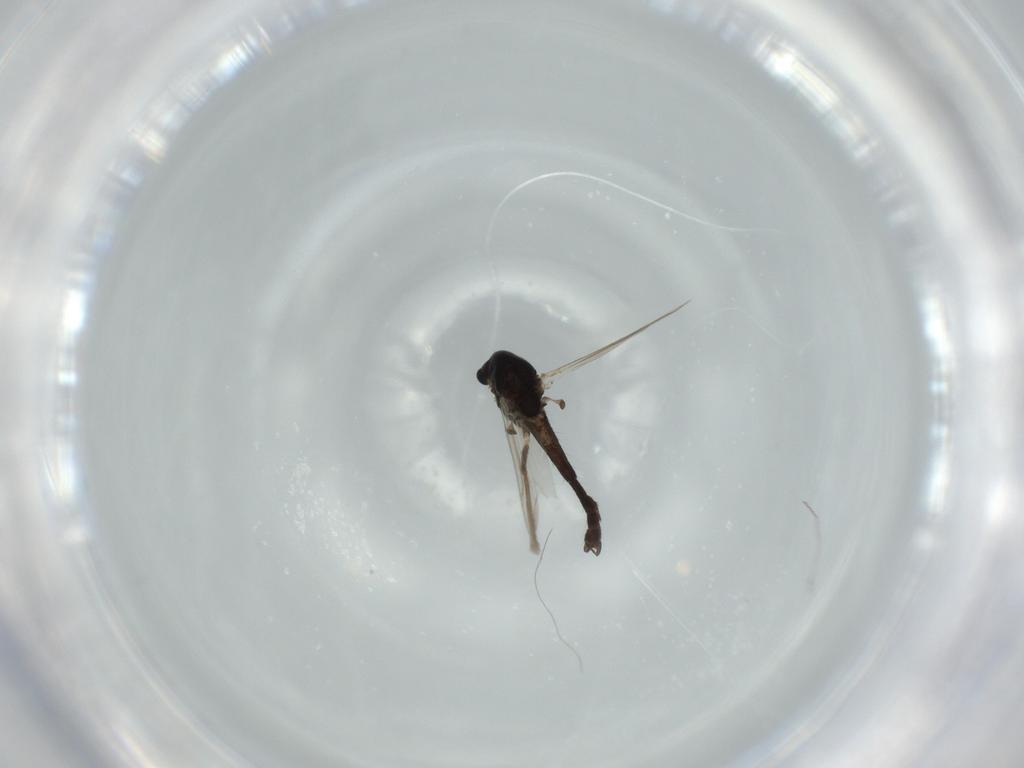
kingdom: Animalia
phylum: Arthropoda
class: Insecta
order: Diptera
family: Chironomidae
